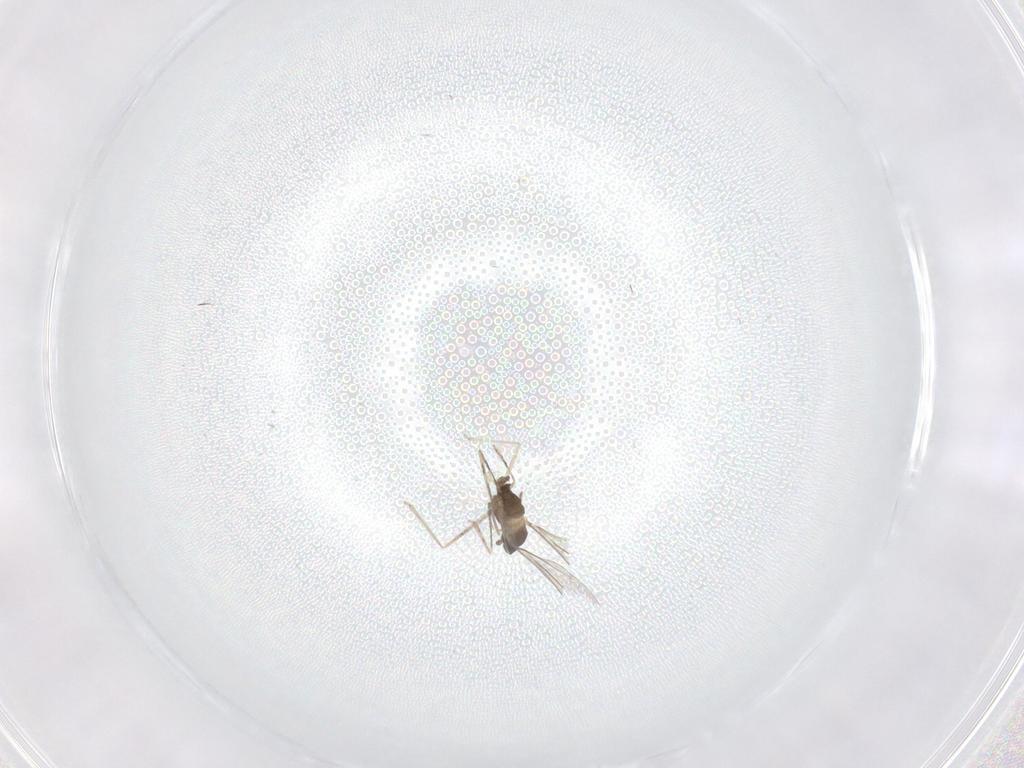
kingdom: Animalia
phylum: Arthropoda
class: Insecta
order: Diptera
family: Cecidomyiidae
